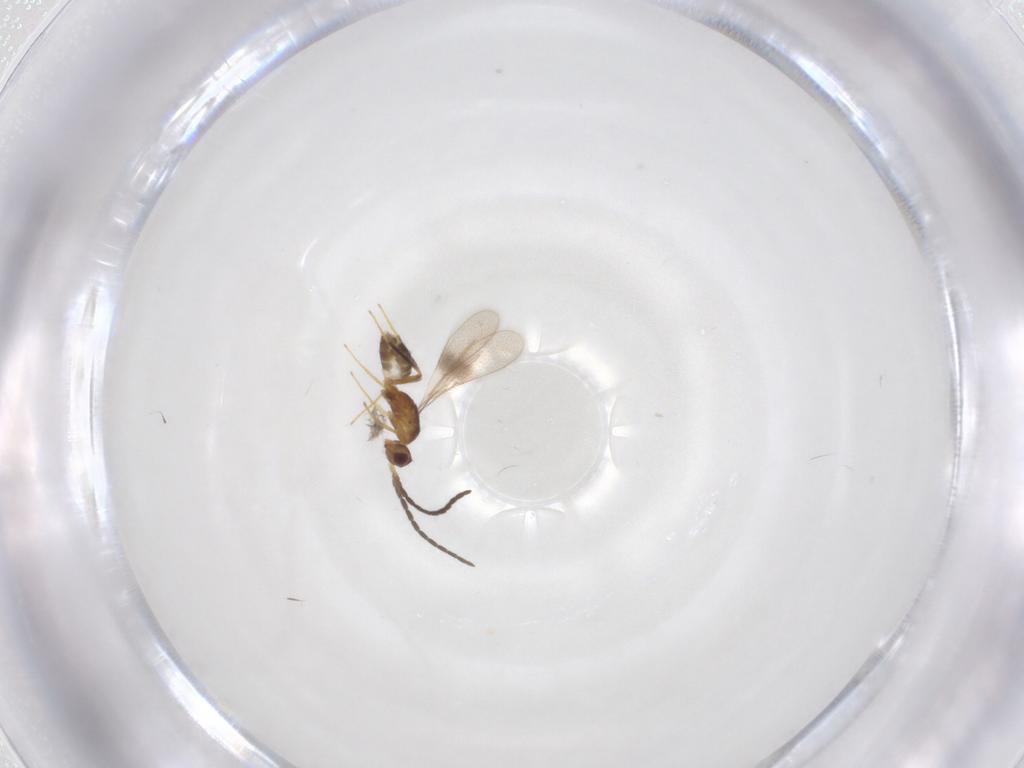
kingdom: Animalia
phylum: Arthropoda
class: Insecta
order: Hymenoptera
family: Mymaridae
